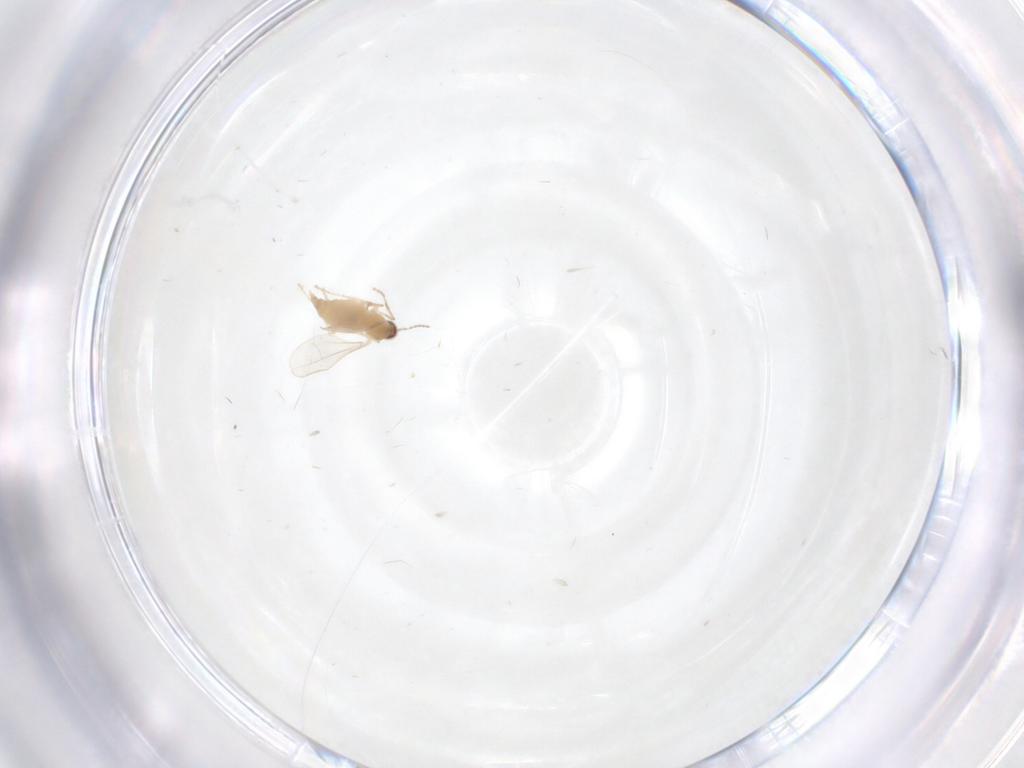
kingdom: Animalia
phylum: Arthropoda
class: Insecta
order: Diptera
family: Cecidomyiidae
